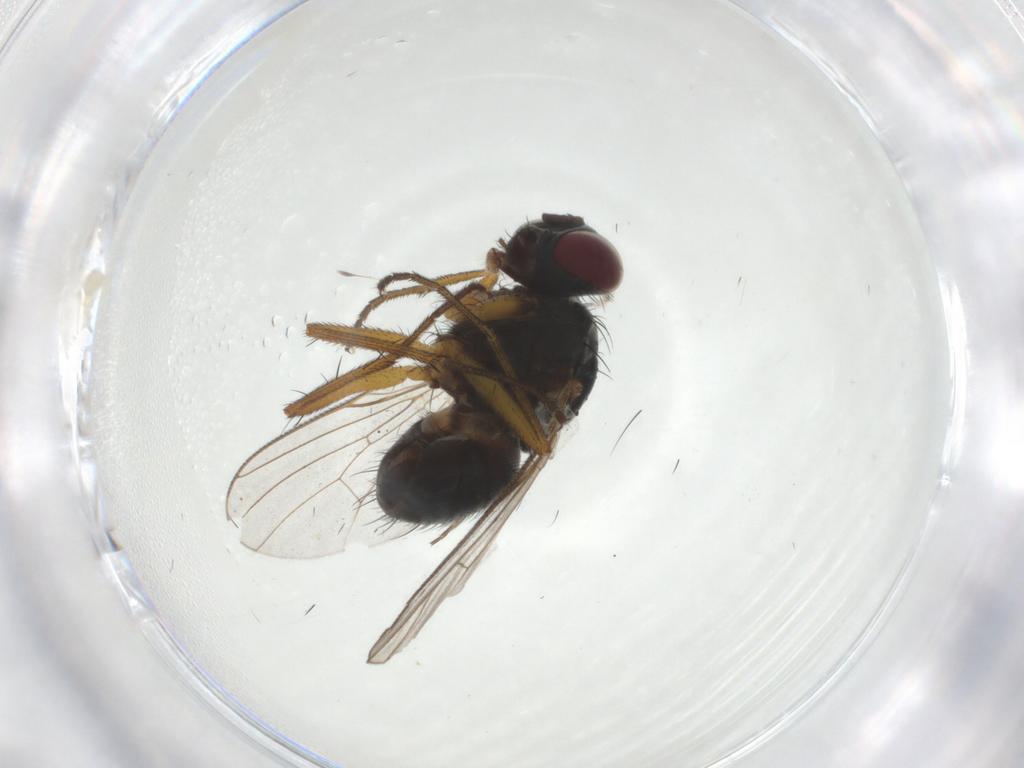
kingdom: Animalia
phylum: Arthropoda
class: Insecta
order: Diptera
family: Muscidae
